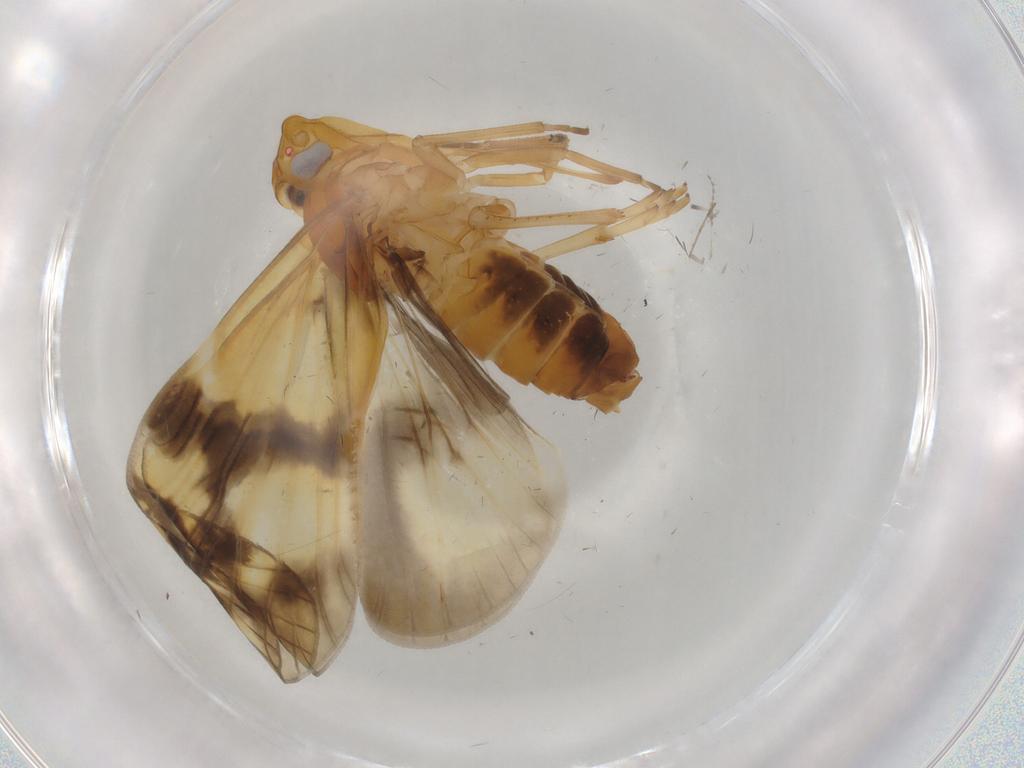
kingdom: Animalia
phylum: Arthropoda
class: Insecta
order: Hemiptera
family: Cixiidae
